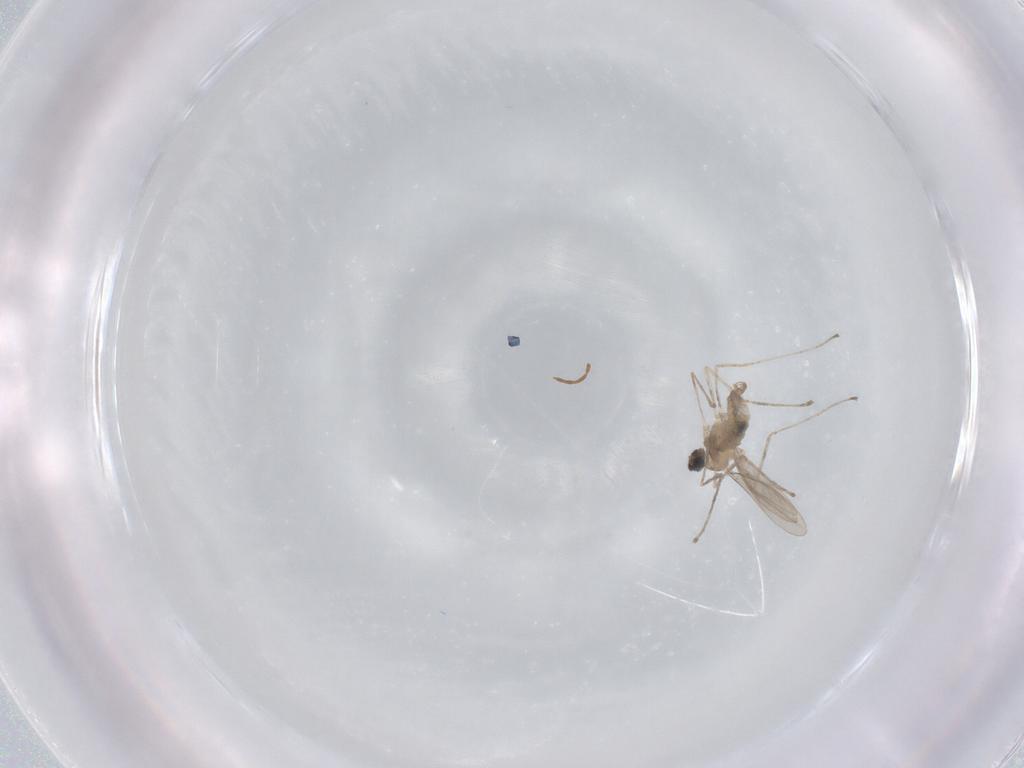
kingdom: Animalia
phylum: Arthropoda
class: Insecta
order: Diptera
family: Cecidomyiidae
